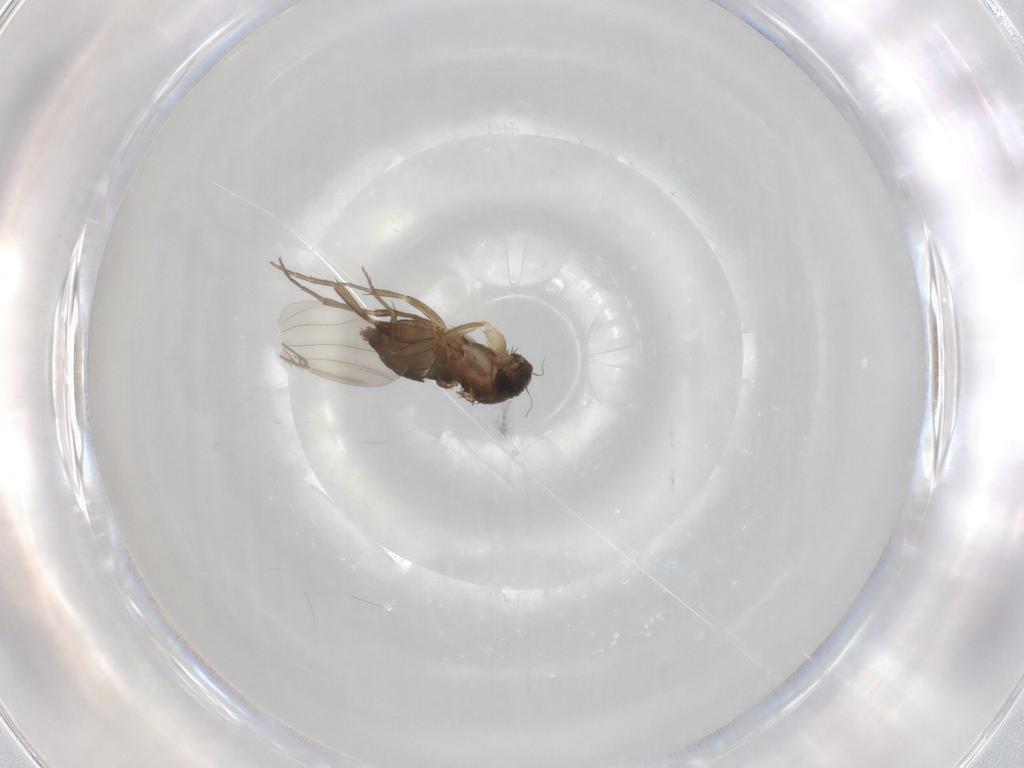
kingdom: Animalia
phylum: Arthropoda
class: Insecta
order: Diptera
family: Phoridae
